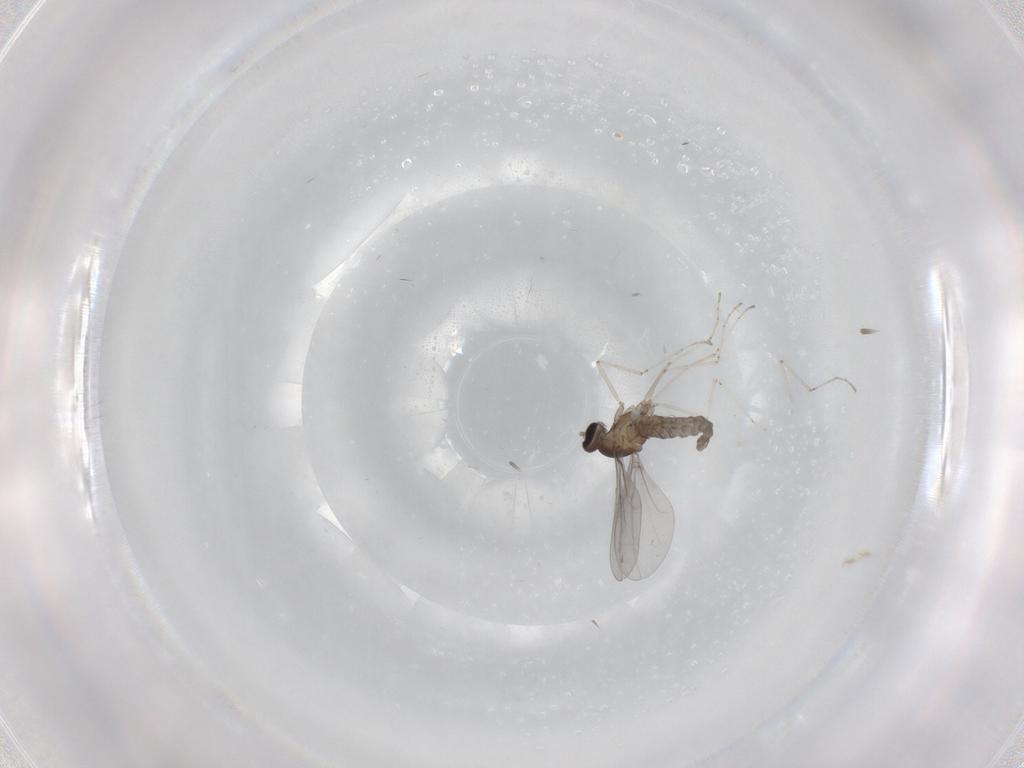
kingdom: Animalia
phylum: Arthropoda
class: Insecta
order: Diptera
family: Cecidomyiidae
